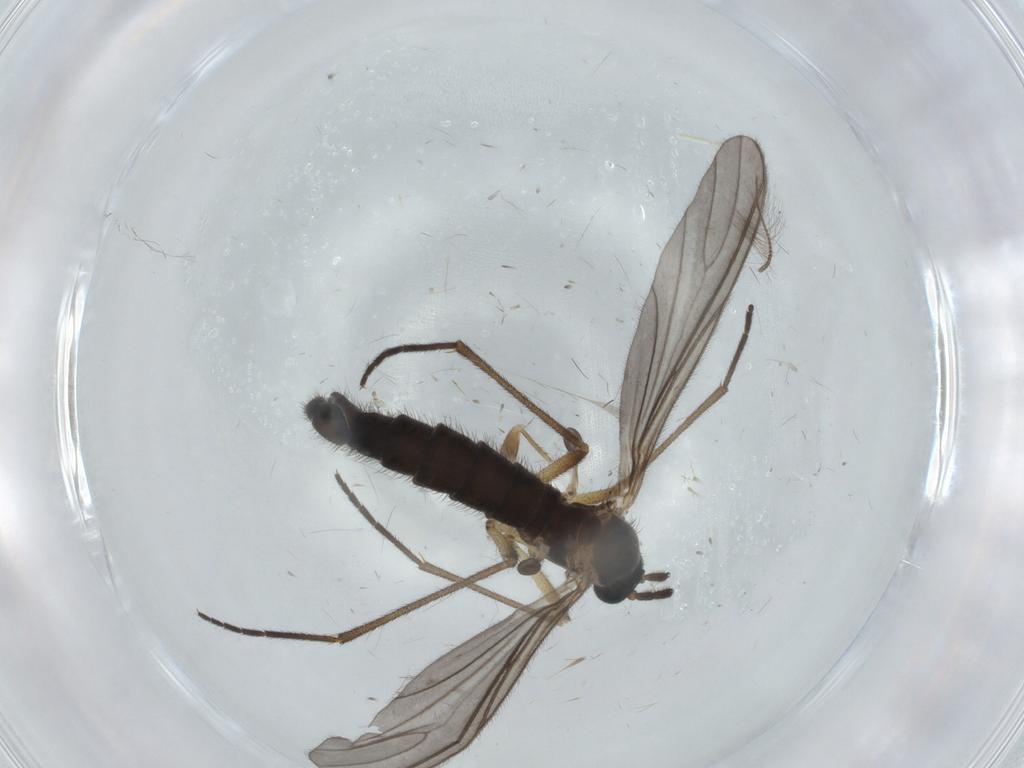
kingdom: Animalia
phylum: Arthropoda
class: Insecta
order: Diptera
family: Sciaridae
